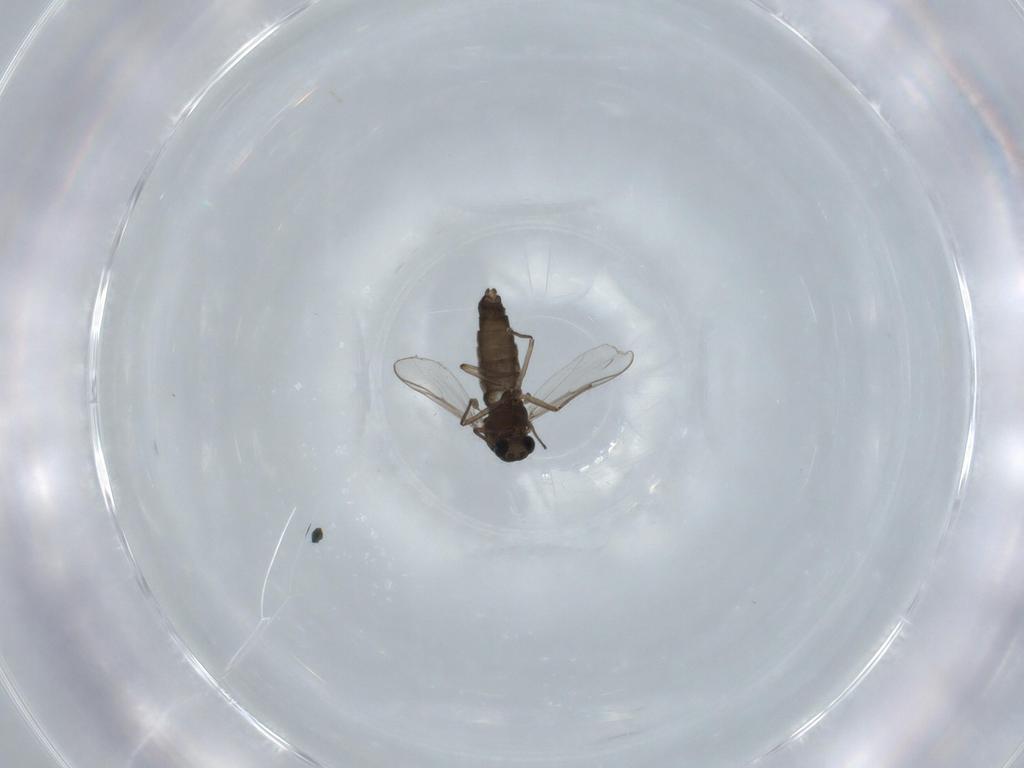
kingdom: Animalia
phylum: Arthropoda
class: Insecta
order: Diptera
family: Chironomidae
